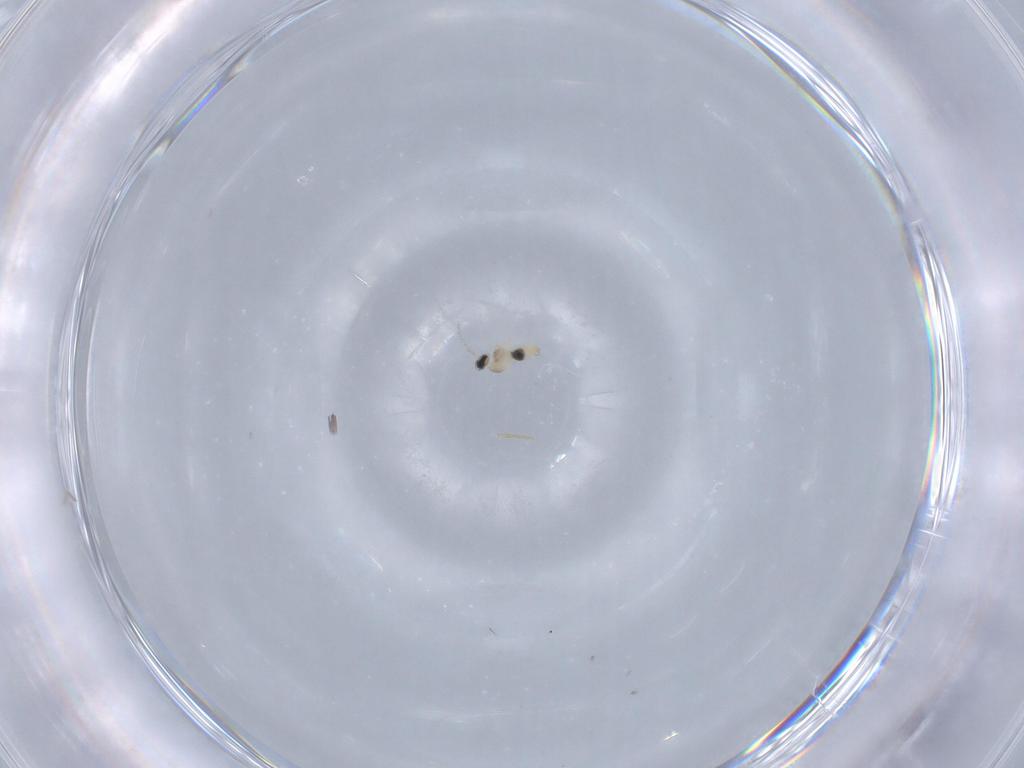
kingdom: Animalia
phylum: Arthropoda
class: Insecta
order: Diptera
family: Cecidomyiidae
